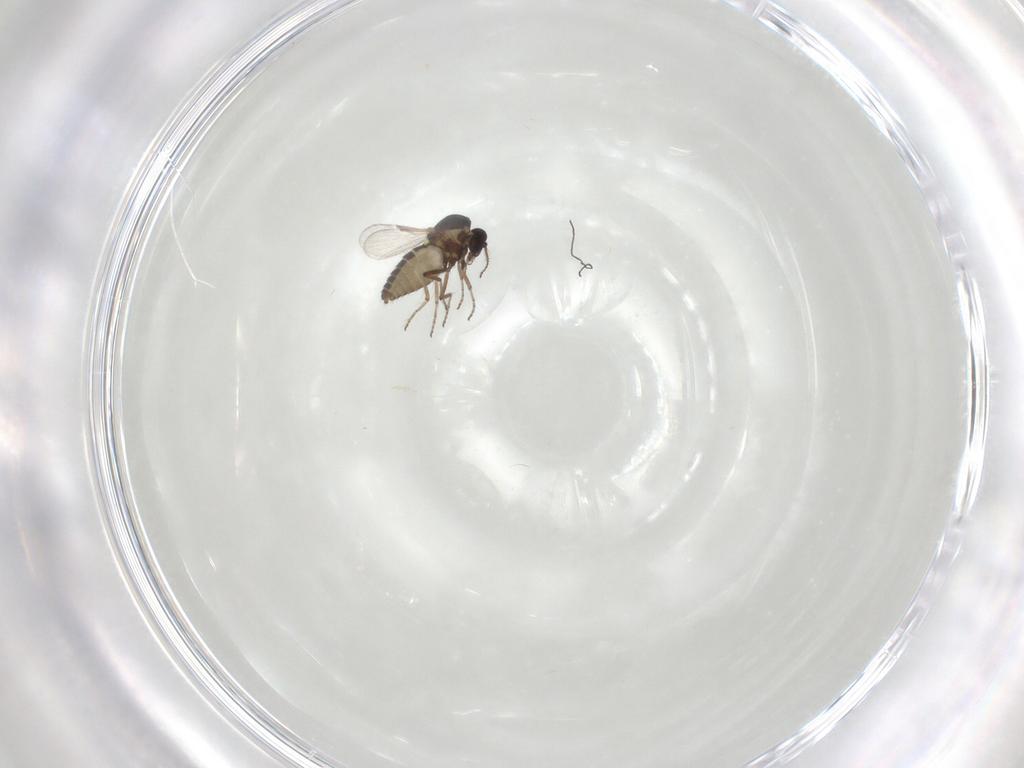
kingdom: Animalia
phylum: Arthropoda
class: Insecta
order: Diptera
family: Ceratopogonidae
